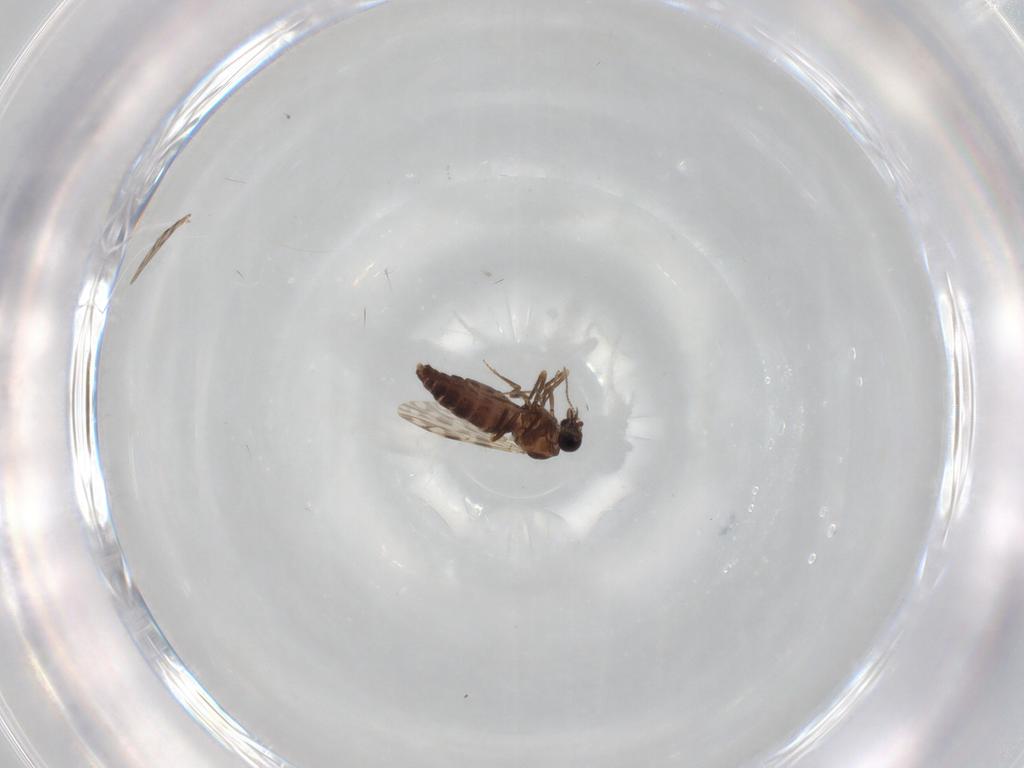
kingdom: Animalia
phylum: Arthropoda
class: Insecta
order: Diptera
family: Ceratopogonidae
